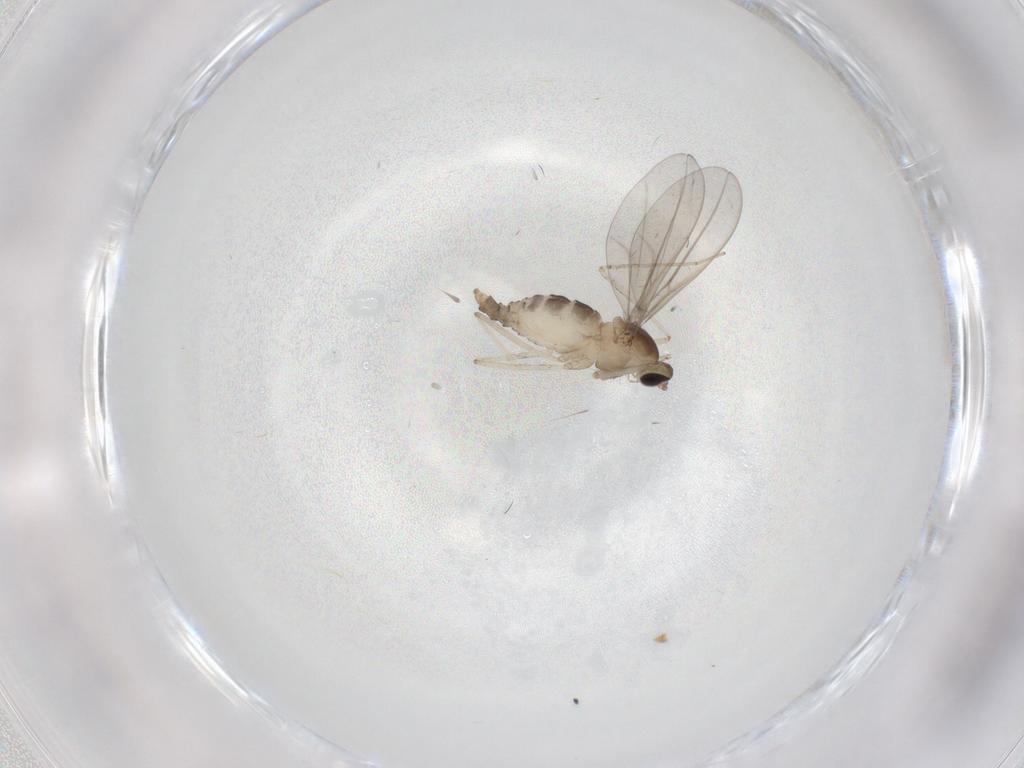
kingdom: Animalia
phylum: Arthropoda
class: Insecta
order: Diptera
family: Cecidomyiidae
